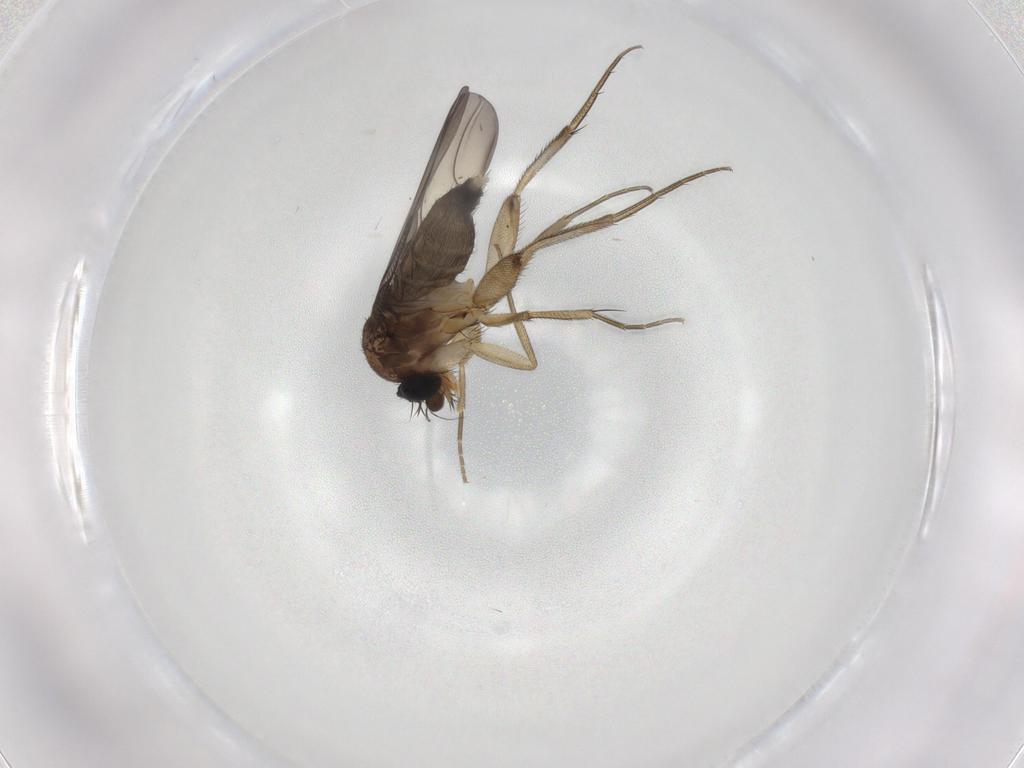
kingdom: Animalia
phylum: Arthropoda
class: Insecta
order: Diptera
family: Phoridae
